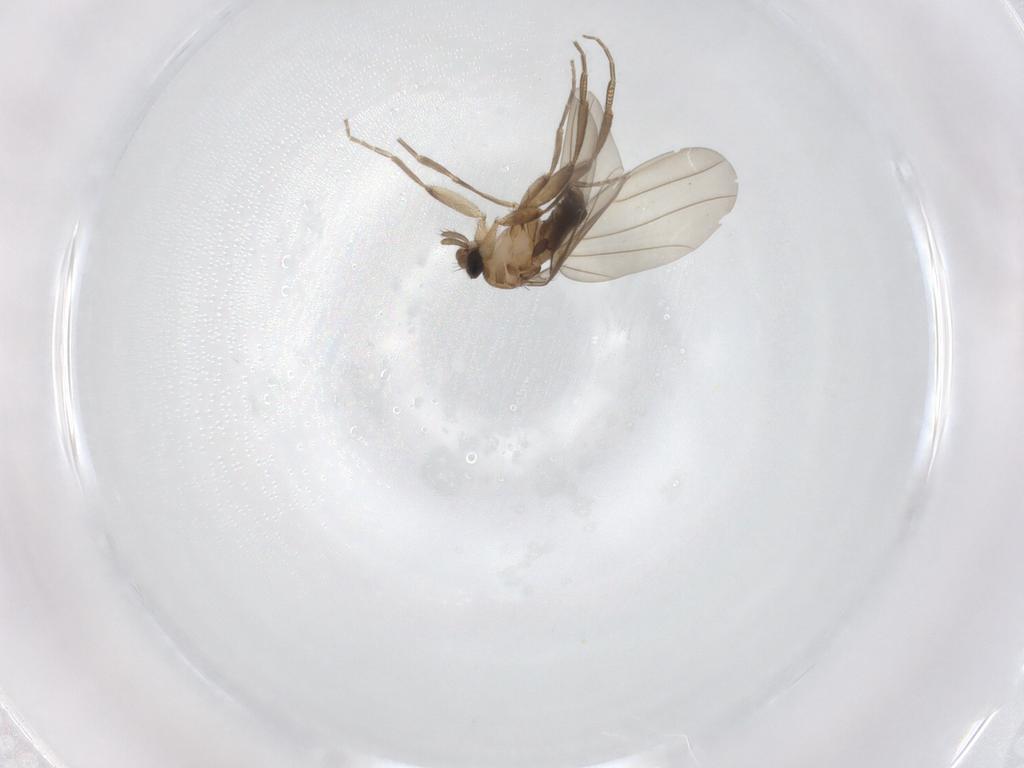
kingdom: Animalia
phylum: Arthropoda
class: Insecta
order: Diptera
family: Phoridae
